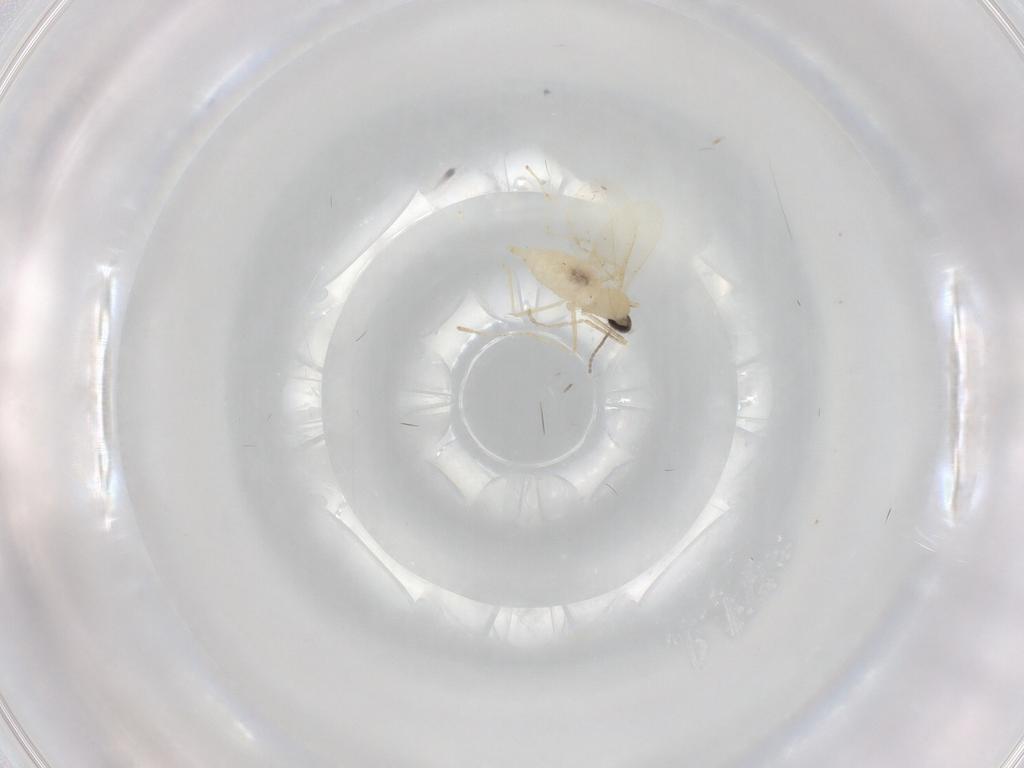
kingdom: Animalia
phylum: Arthropoda
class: Insecta
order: Diptera
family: Cecidomyiidae
